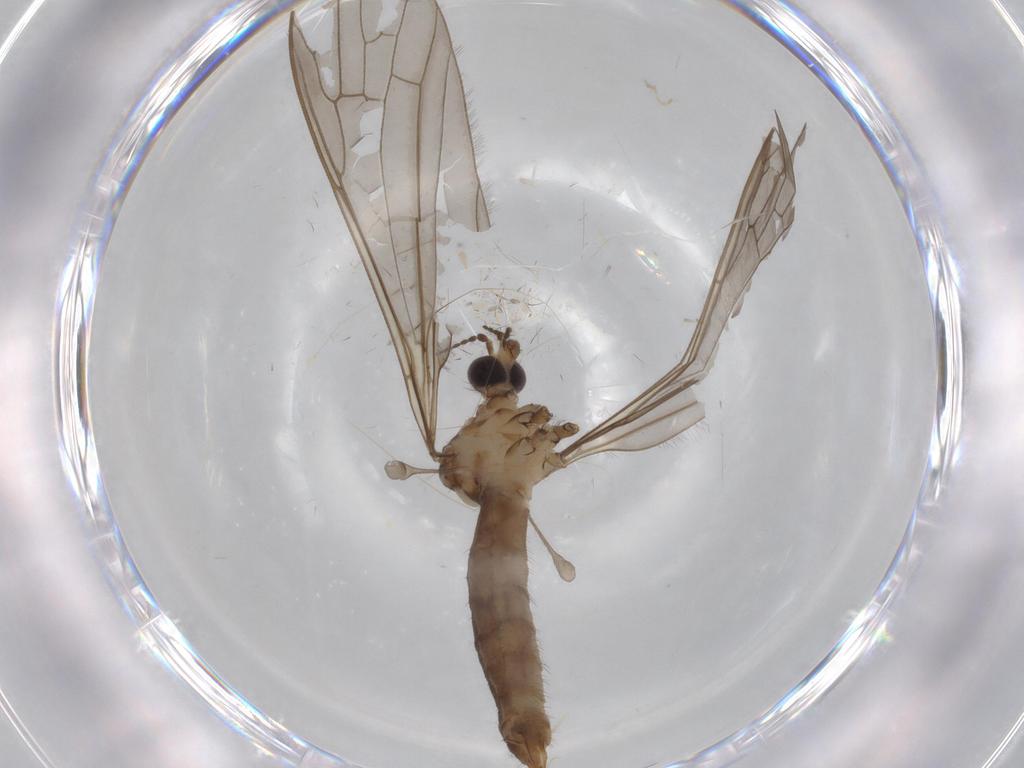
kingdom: Animalia
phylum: Arthropoda
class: Insecta
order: Diptera
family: Limoniidae
